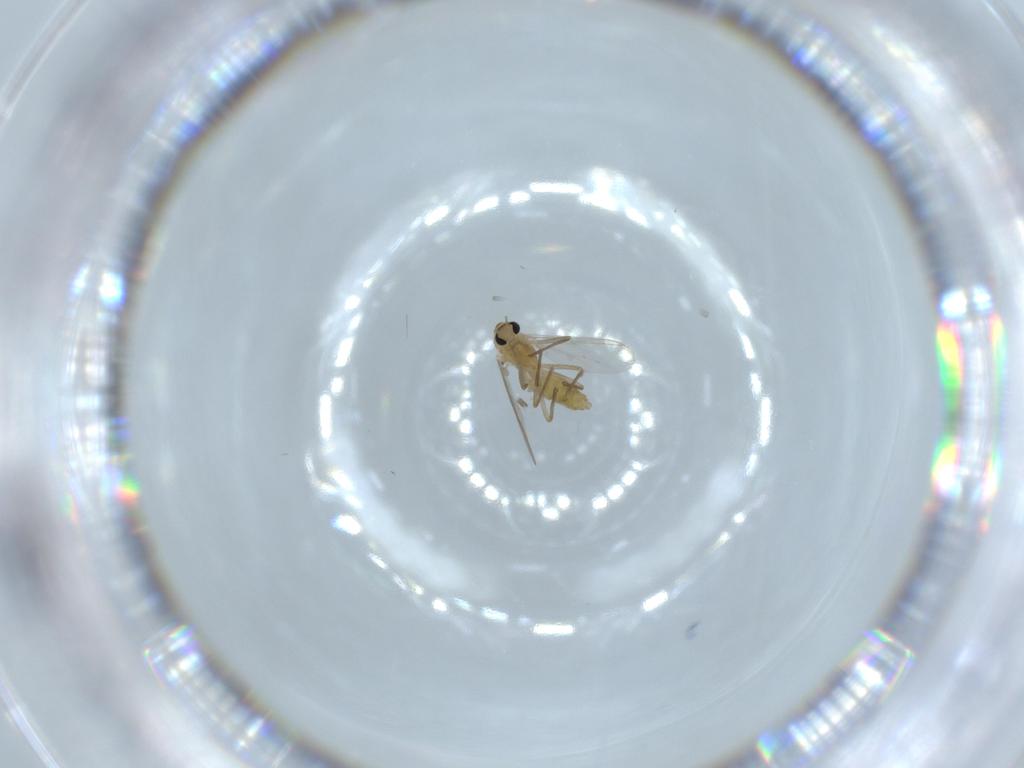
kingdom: Animalia
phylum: Arthropoda
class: Insecta
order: Diptera
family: Chironomidae
